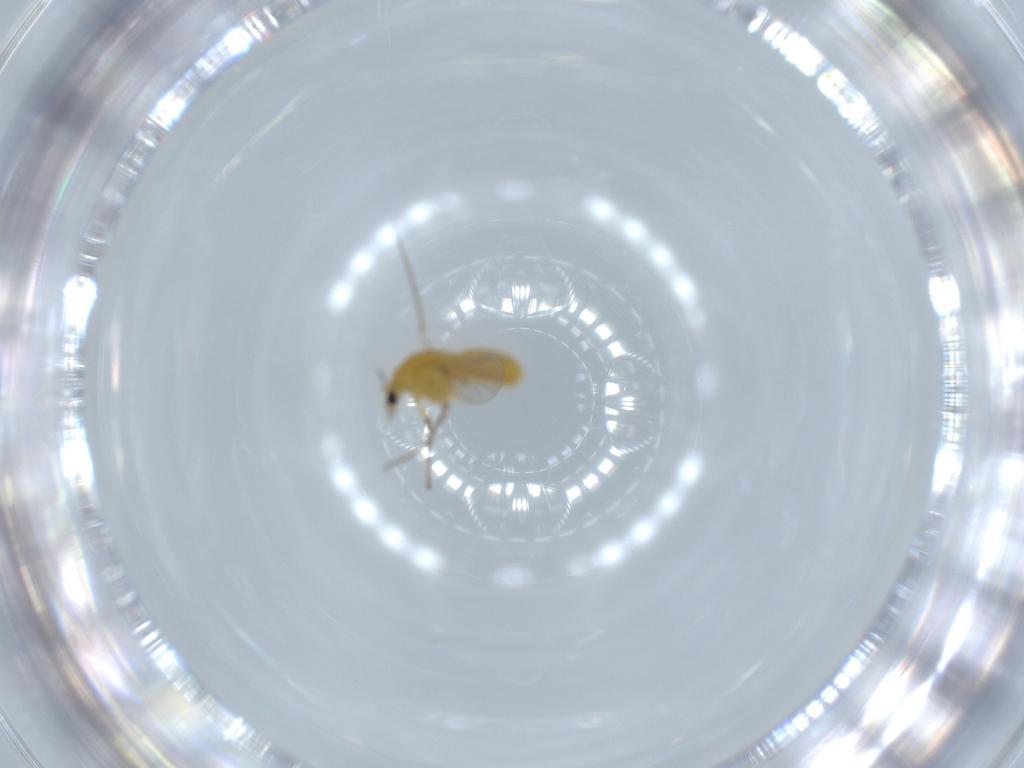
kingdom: Animalia
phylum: Arthropoda
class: Insecta
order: Diptera
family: Chironomidae
